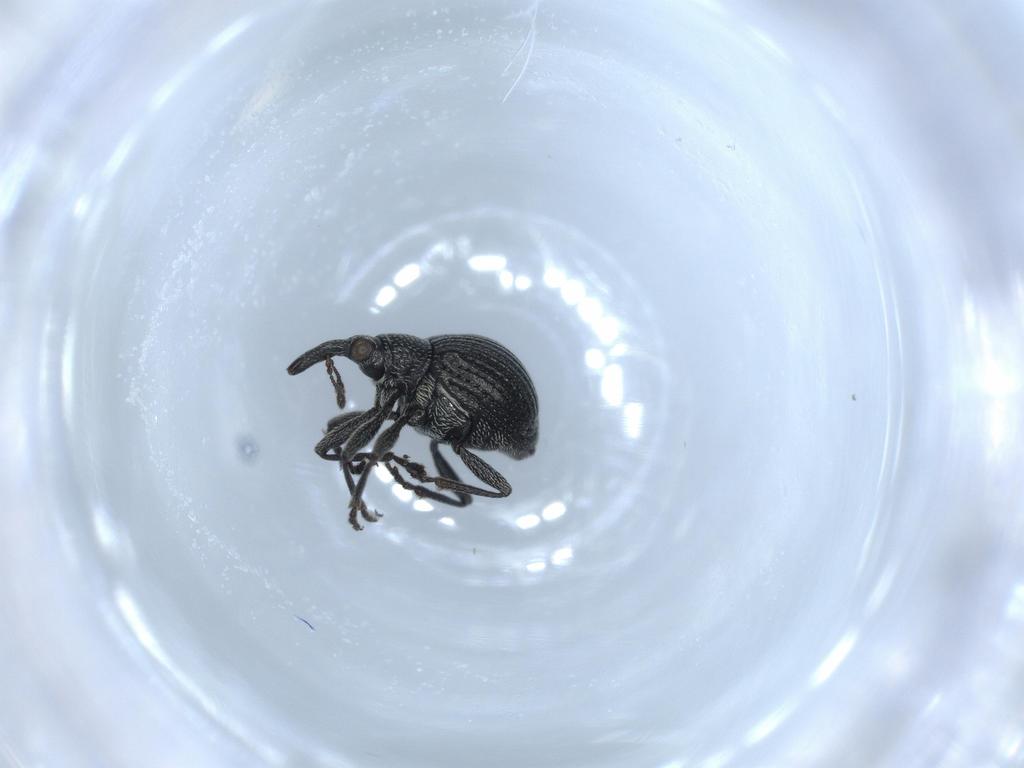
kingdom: Animalia
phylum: Arthropoda
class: Insecta
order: Coleoptera
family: Brentidae
